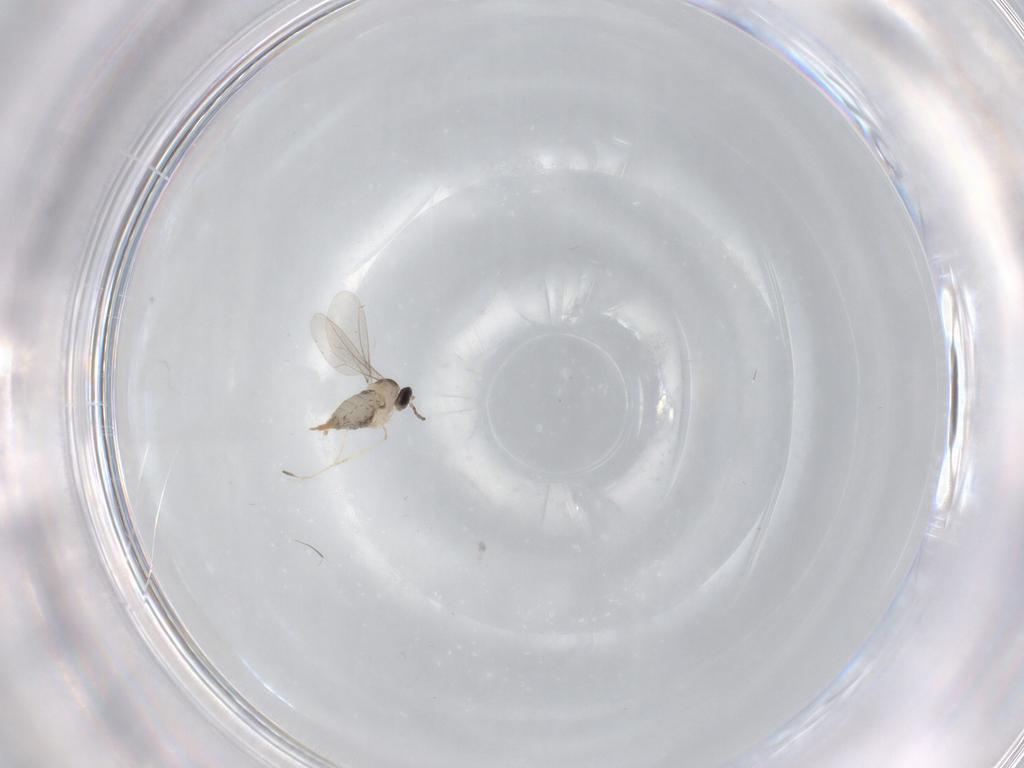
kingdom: Animalia
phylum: Arthropoda
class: Insecta
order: Diptera
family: Cecidomyiidae
